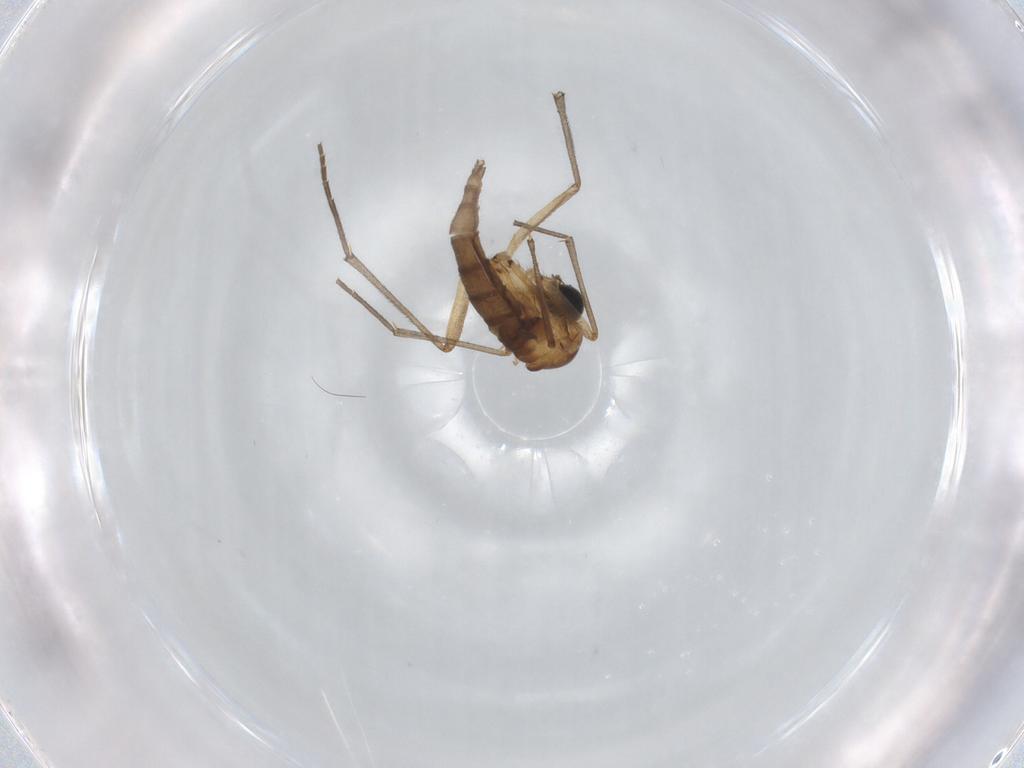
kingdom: Animalia
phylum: Arthropoda
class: Insecta
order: Diptera
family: Sciaridae
